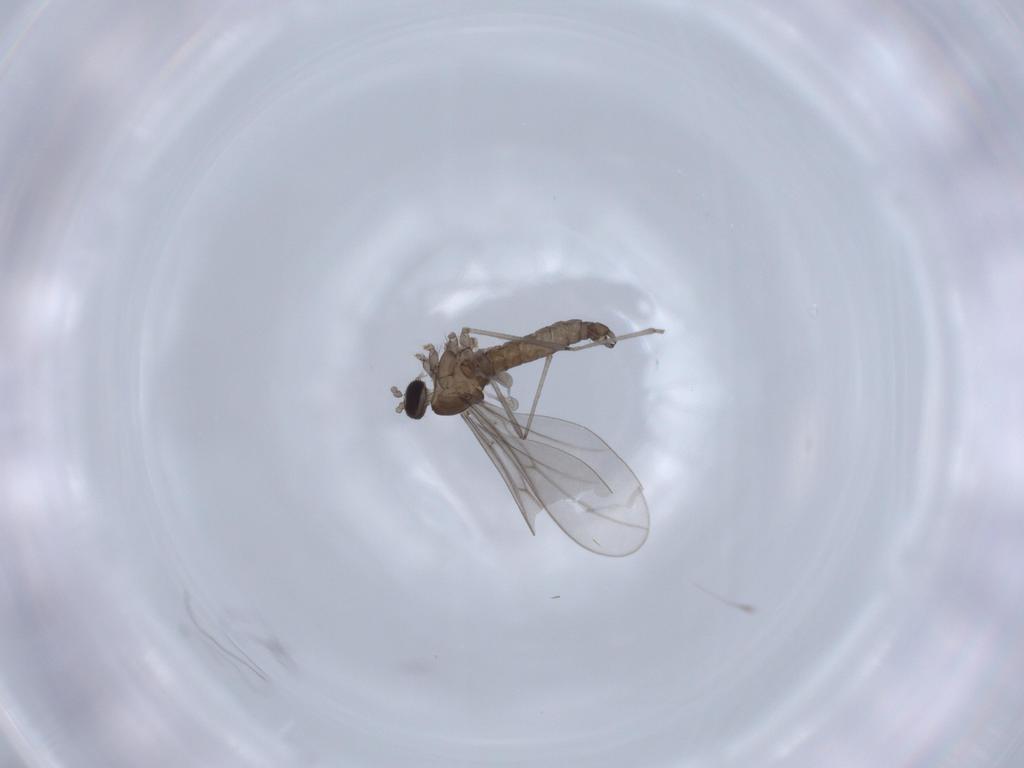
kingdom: Animalia
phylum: Arthropoda
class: Insecta
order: Diptera
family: Cecidomyiidae
